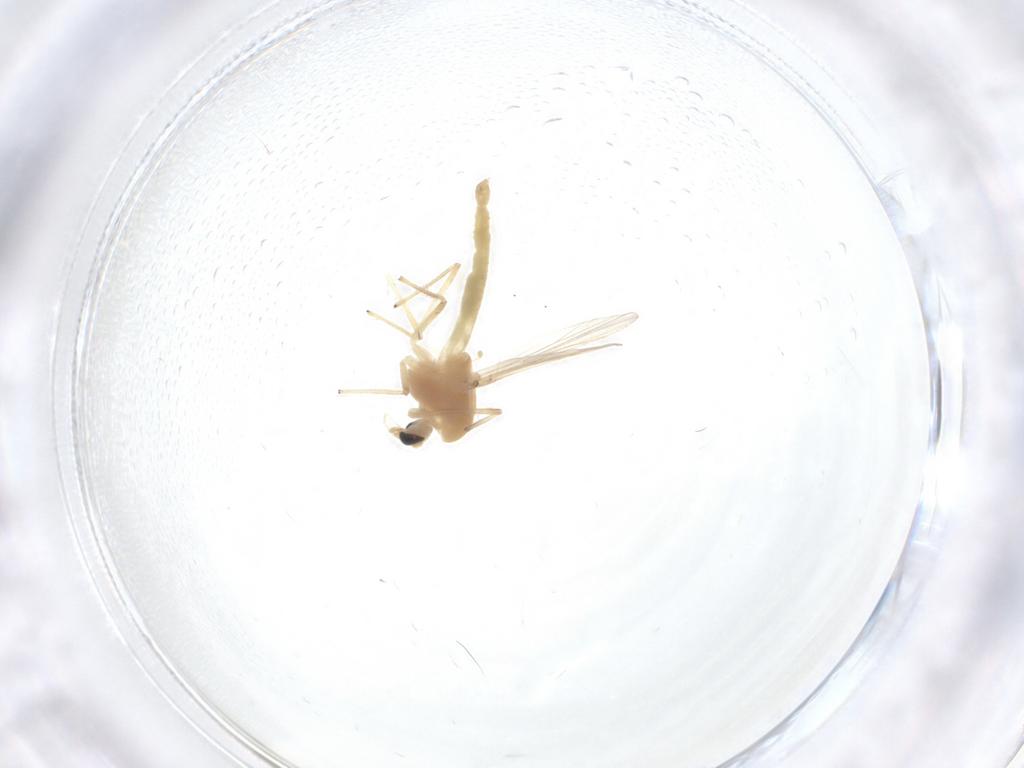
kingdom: Animalia
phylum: Arthropoda
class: Insecta
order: Diptera
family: Chironomidae
